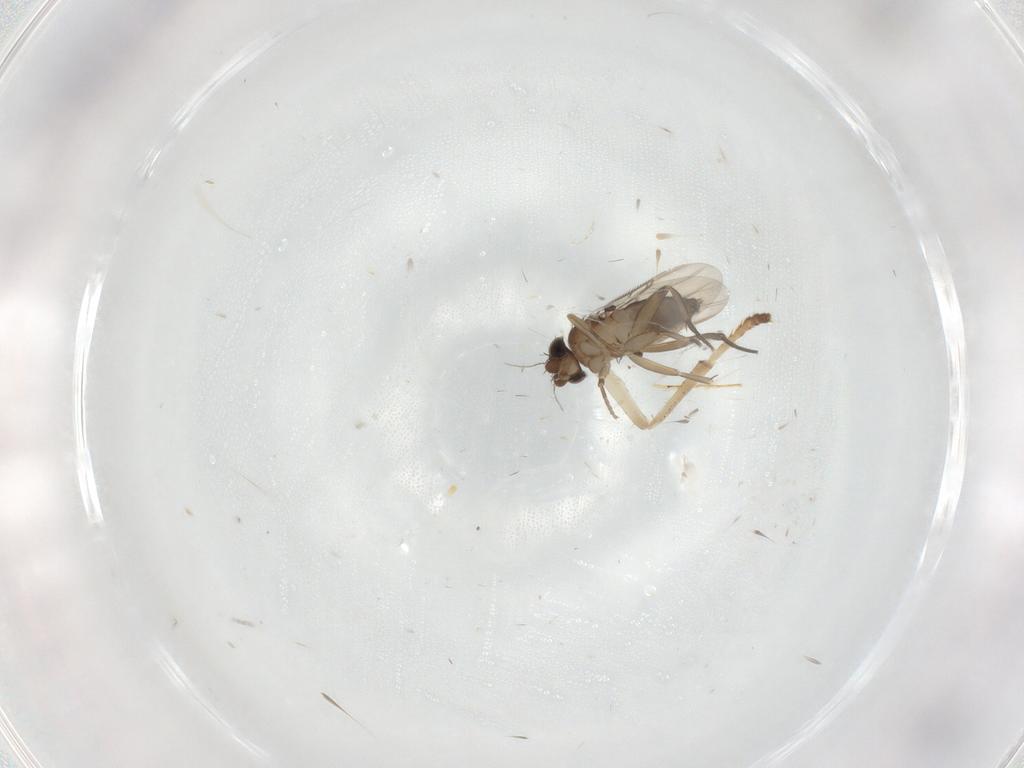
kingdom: Animalia
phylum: Arthropoda
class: Insecta
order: Diptera
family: Phoridae
